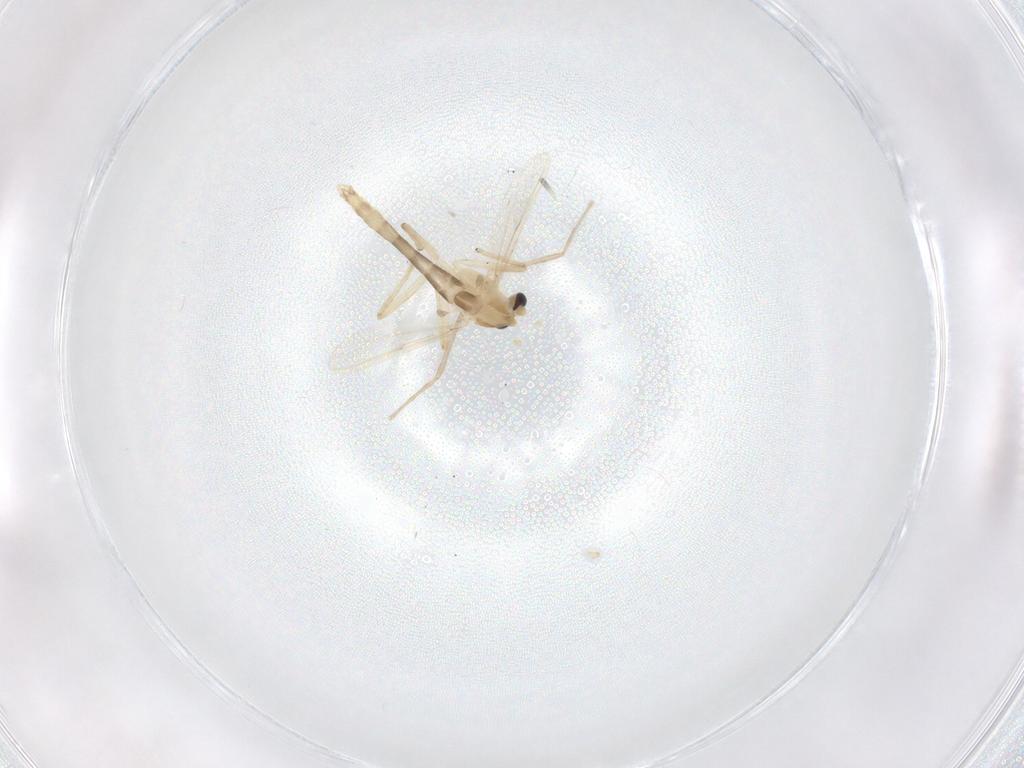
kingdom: Animalia
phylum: Arthropoda
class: Insecta
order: Diptera
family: Chironomidae
